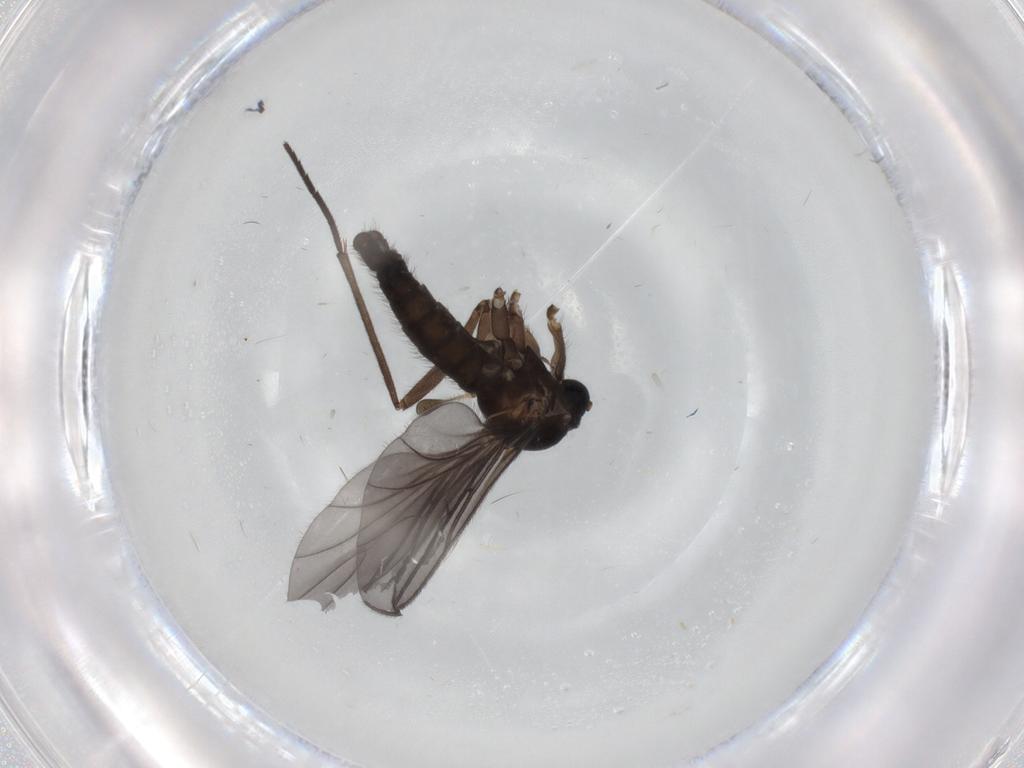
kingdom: Animalia
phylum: Arthropoda
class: Insecta
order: Diptera
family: Sciaridae
